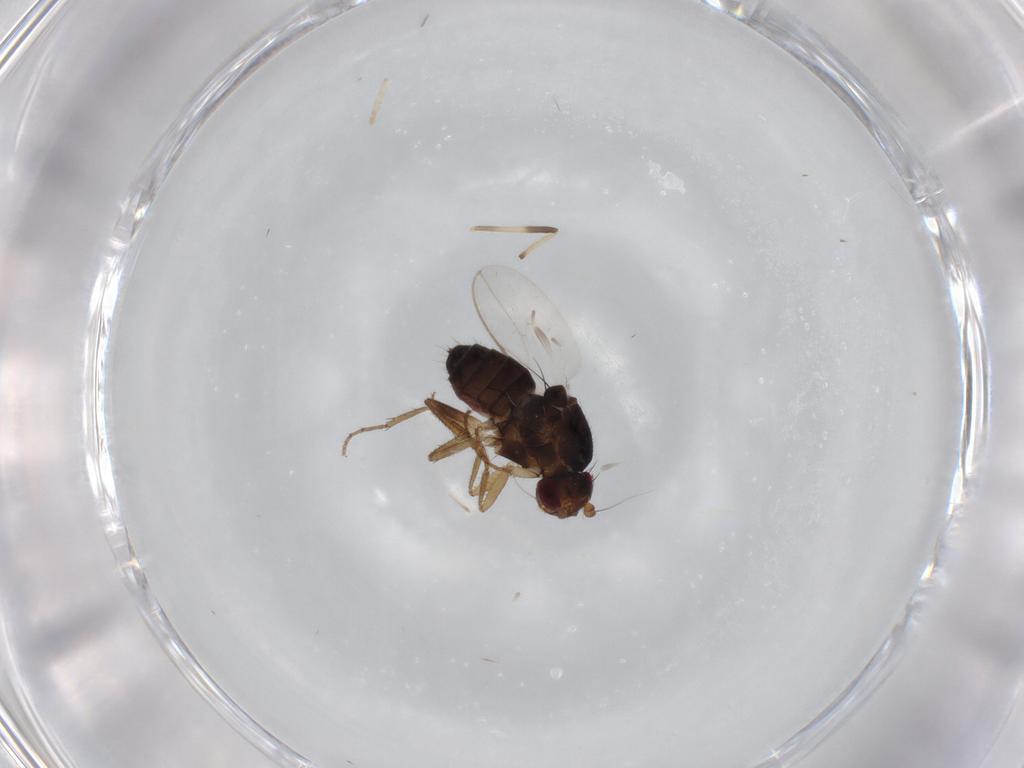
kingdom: Animalia
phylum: Arthropoda
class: Insecta
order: Diptera
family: Sphaeroceridae
